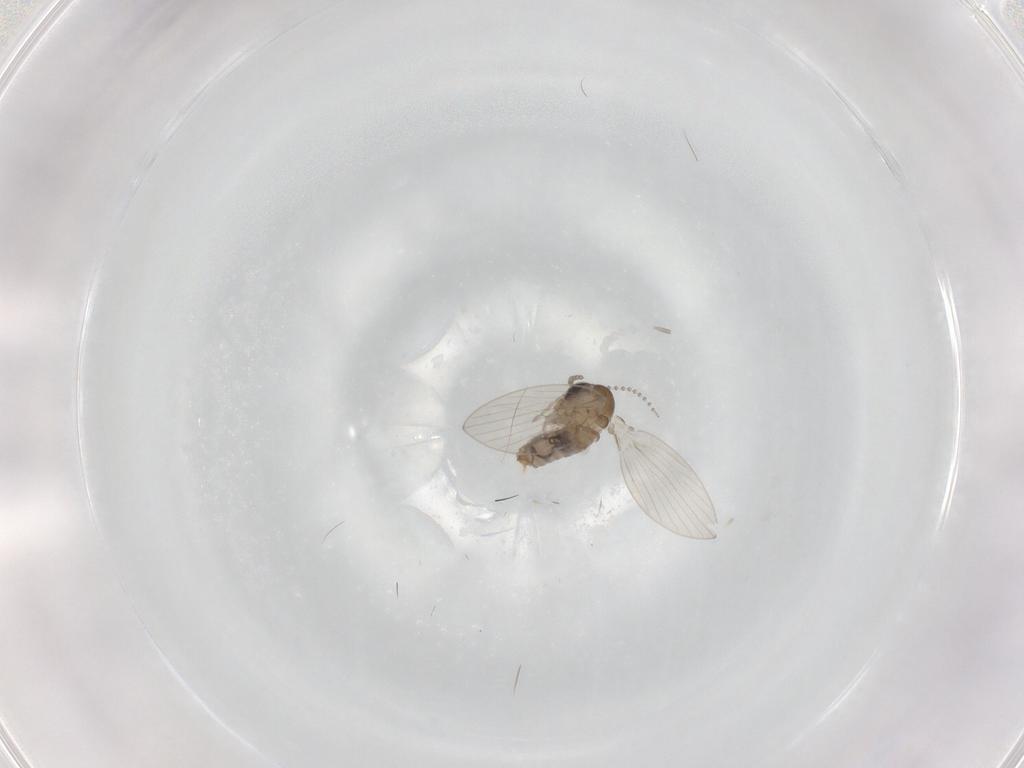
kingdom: Animalia
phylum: Arthropoda
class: Insecta
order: Diptera
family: Psychodidae
